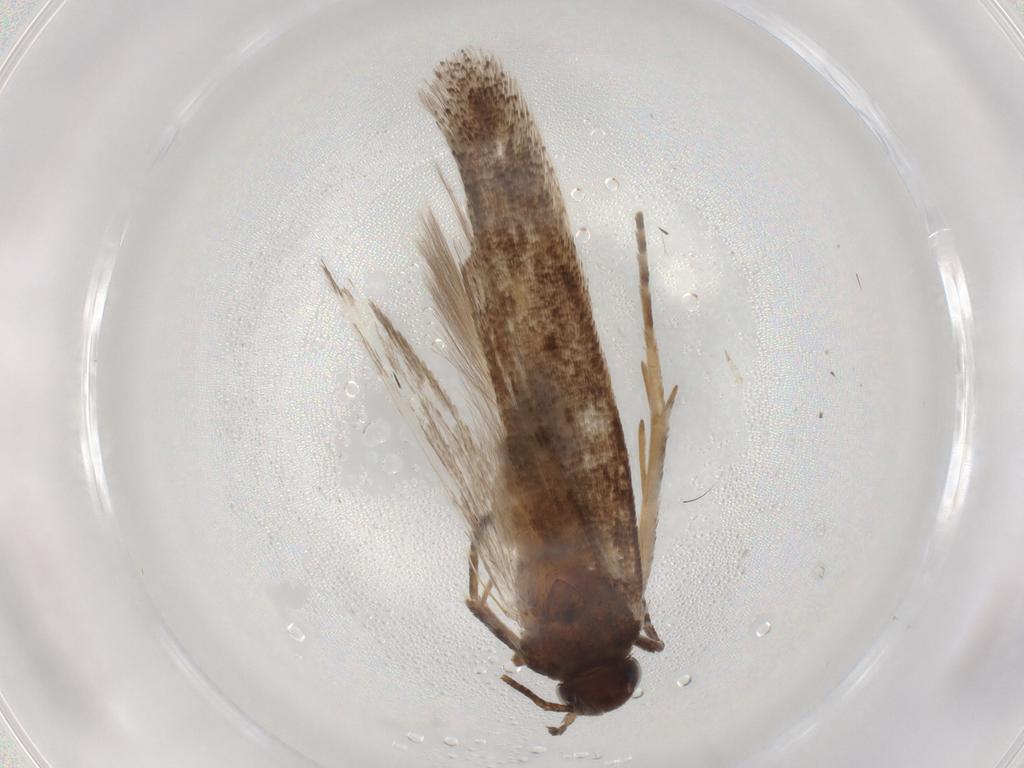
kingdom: Animalia
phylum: Arthropoda
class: Insecta
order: Lepidoptera
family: Gelechiidae
